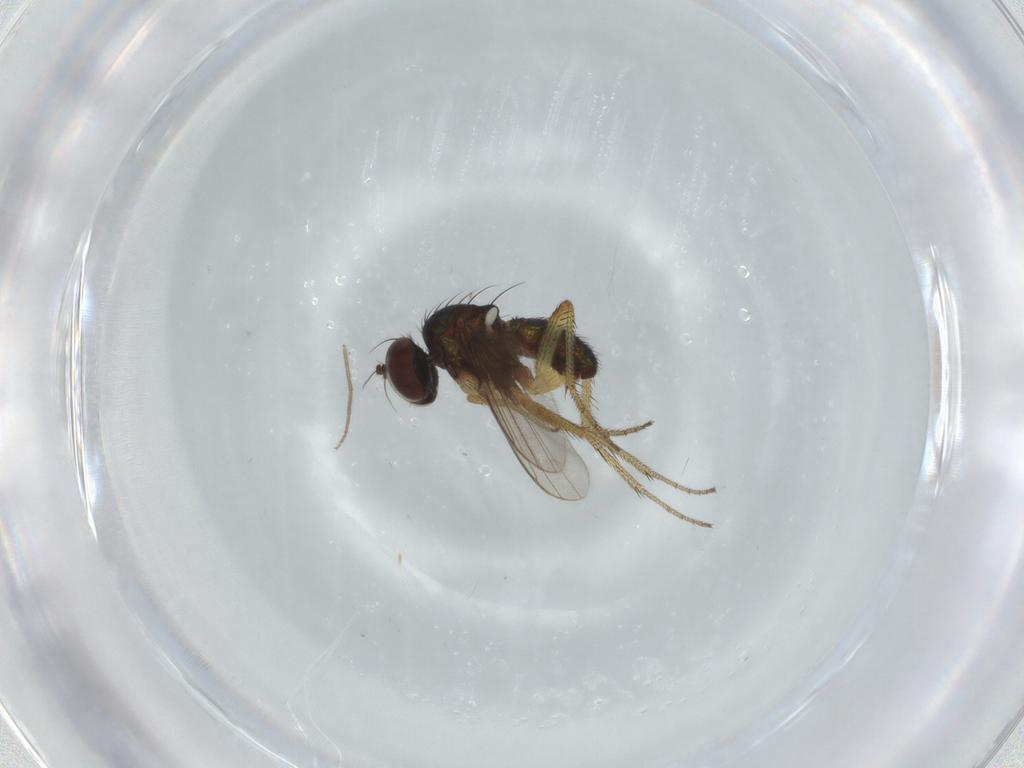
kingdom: Animalia
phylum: Arthropoda
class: Insecta
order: Diptera
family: Dolichopodidae
